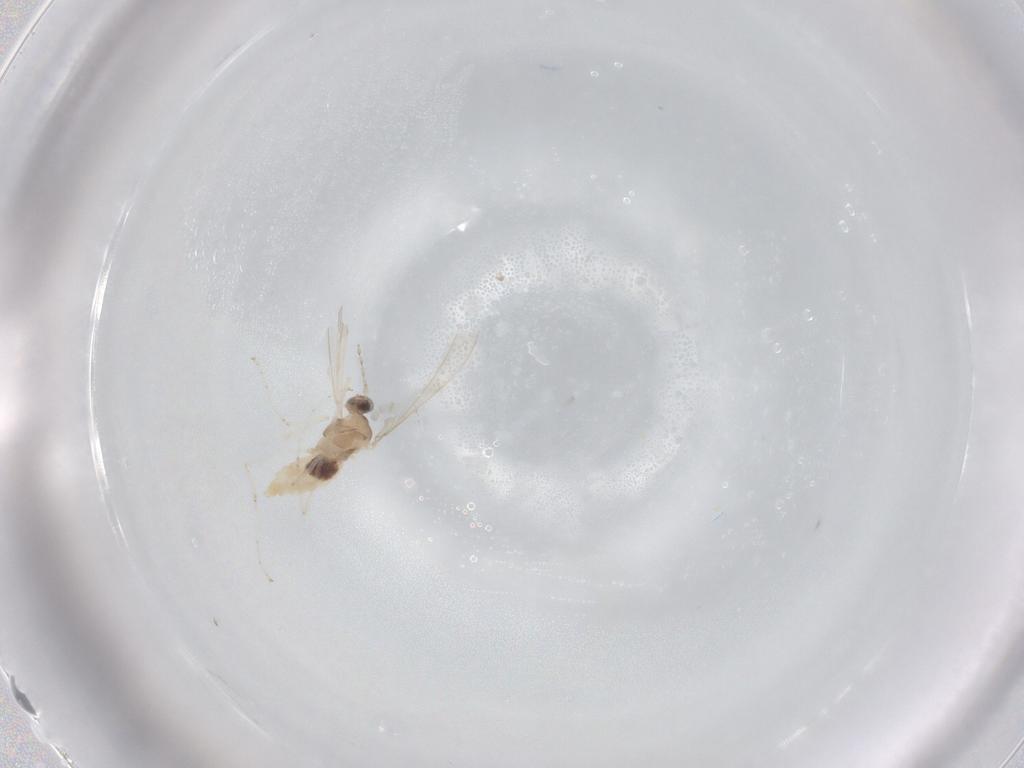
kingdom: Animalia
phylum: Arthropoda
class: Insecta
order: Diptera
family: Cecidomyiidae
